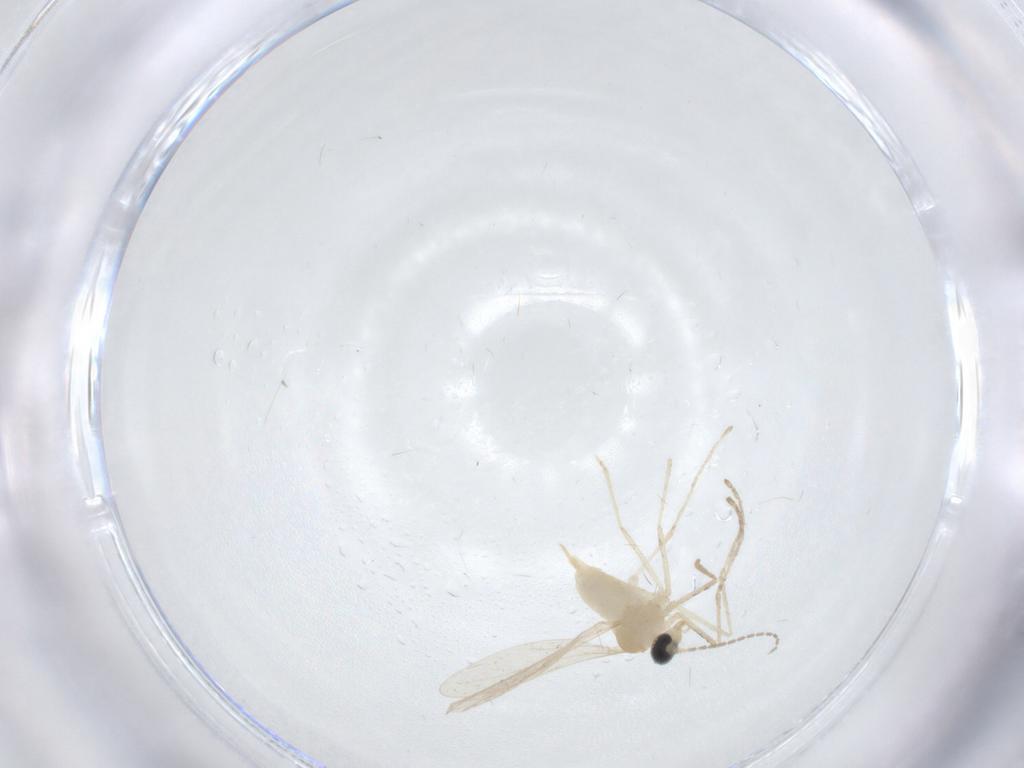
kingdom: Animalia
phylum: Arthropoda
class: Insecta
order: Diptera
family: Cecidomyiidae
